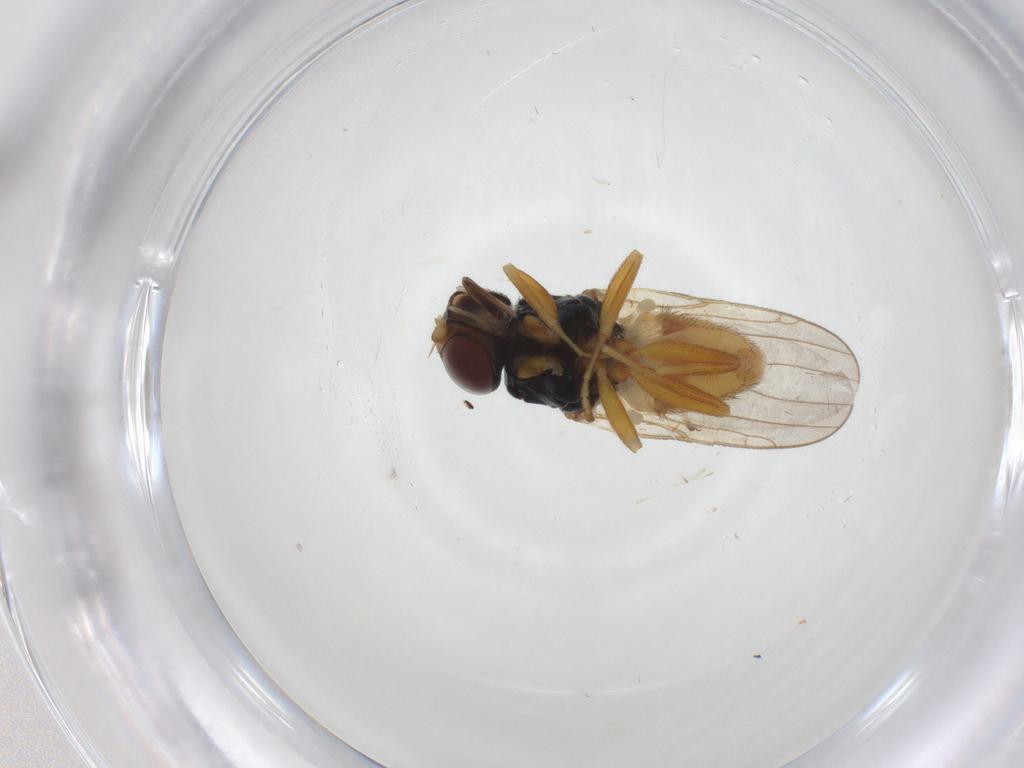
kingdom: Animalia
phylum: Arthropoda
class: Insecta
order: Diptera
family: Chloropidae
